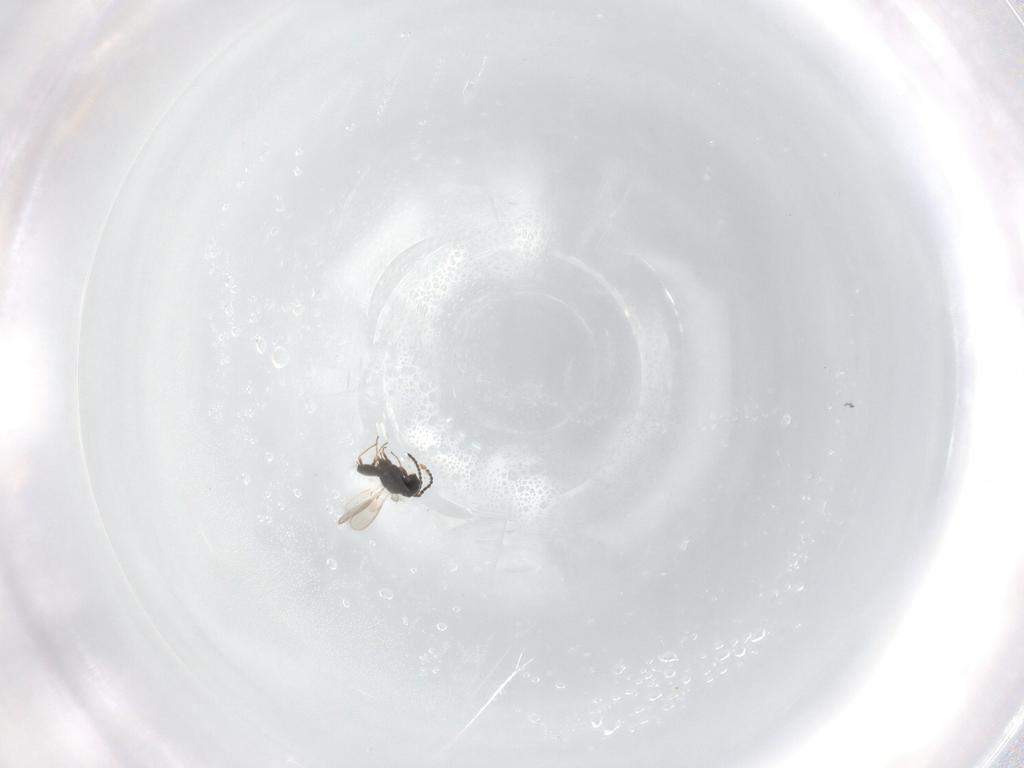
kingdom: Animalia
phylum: Arthropoda
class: Insecta
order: Hymenoptera
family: Scelionidae
